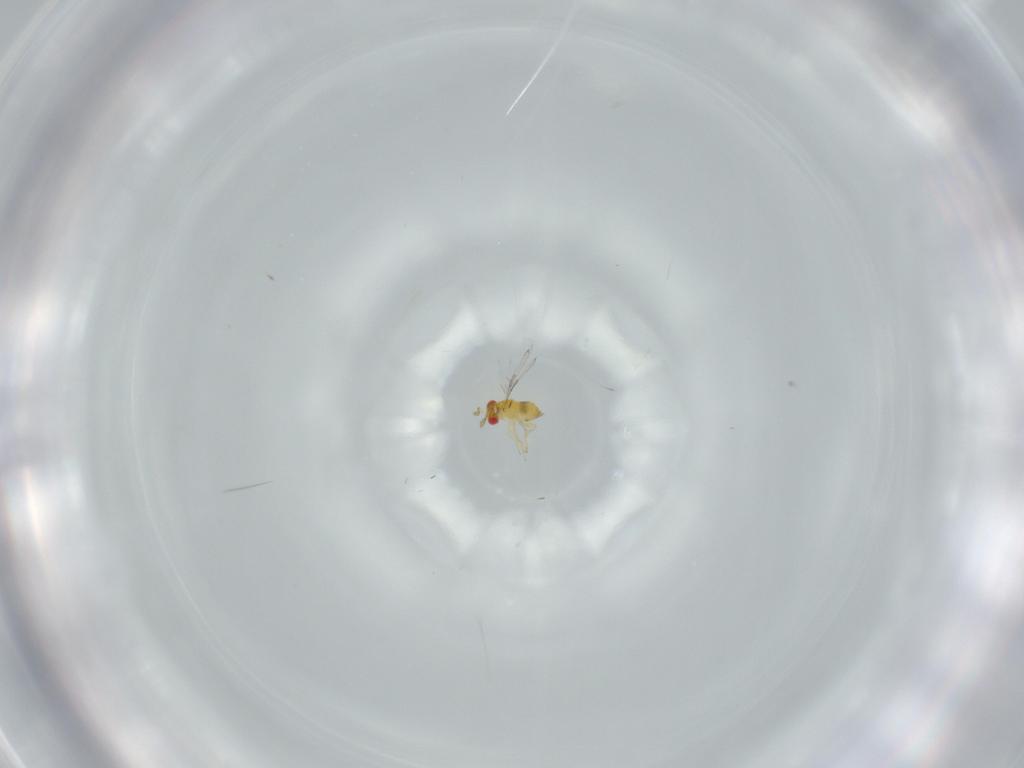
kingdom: Animalia
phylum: Arthropoda
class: Insecta
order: Hymenoptera
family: Trichogrammatidae
